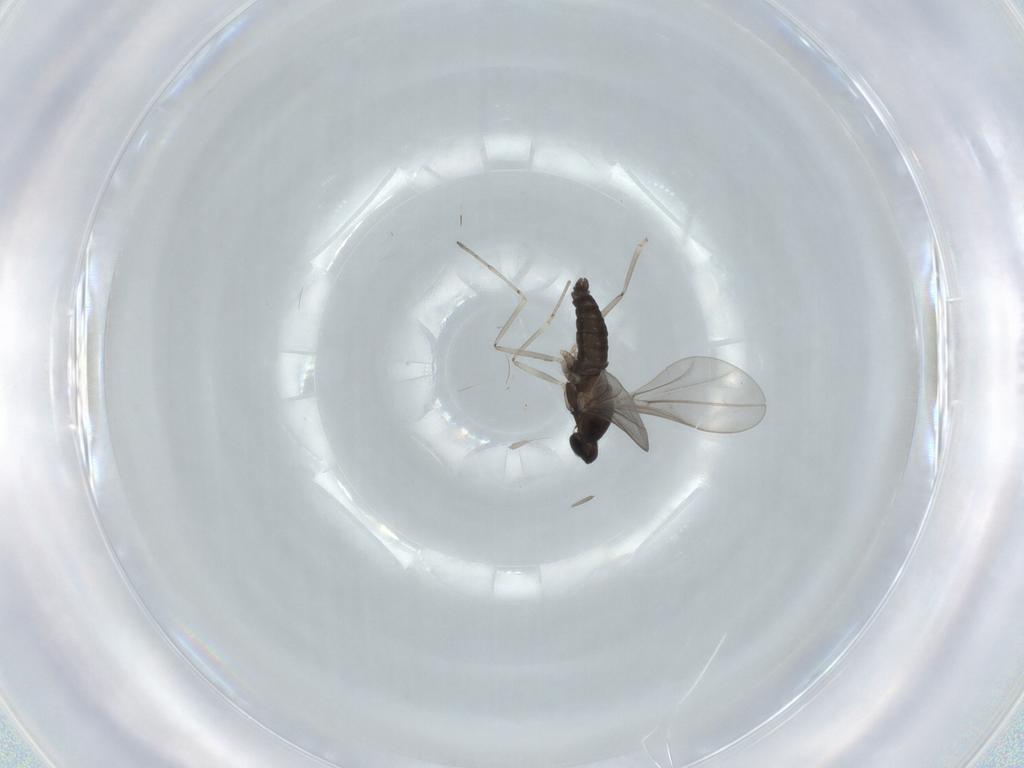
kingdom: Animalia
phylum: Arthropoda
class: Insecta
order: Diptera
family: Cecidomyiidae
